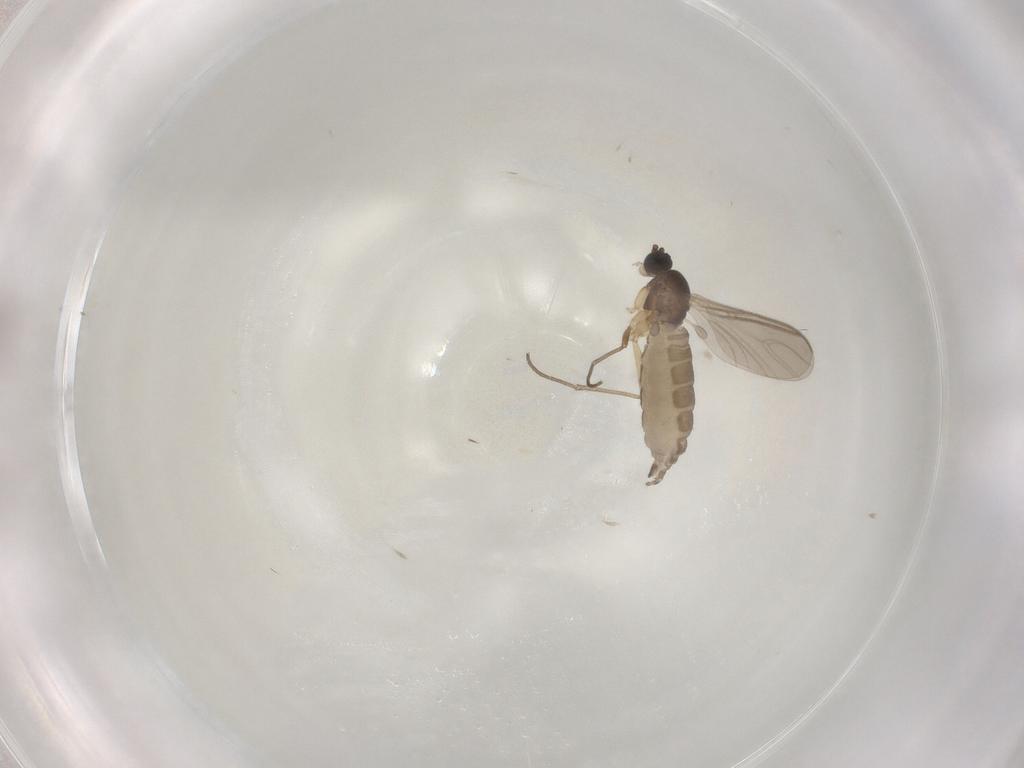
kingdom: Animalia
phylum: Arthropoda
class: Insecta
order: Diptera
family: Sciaridae
